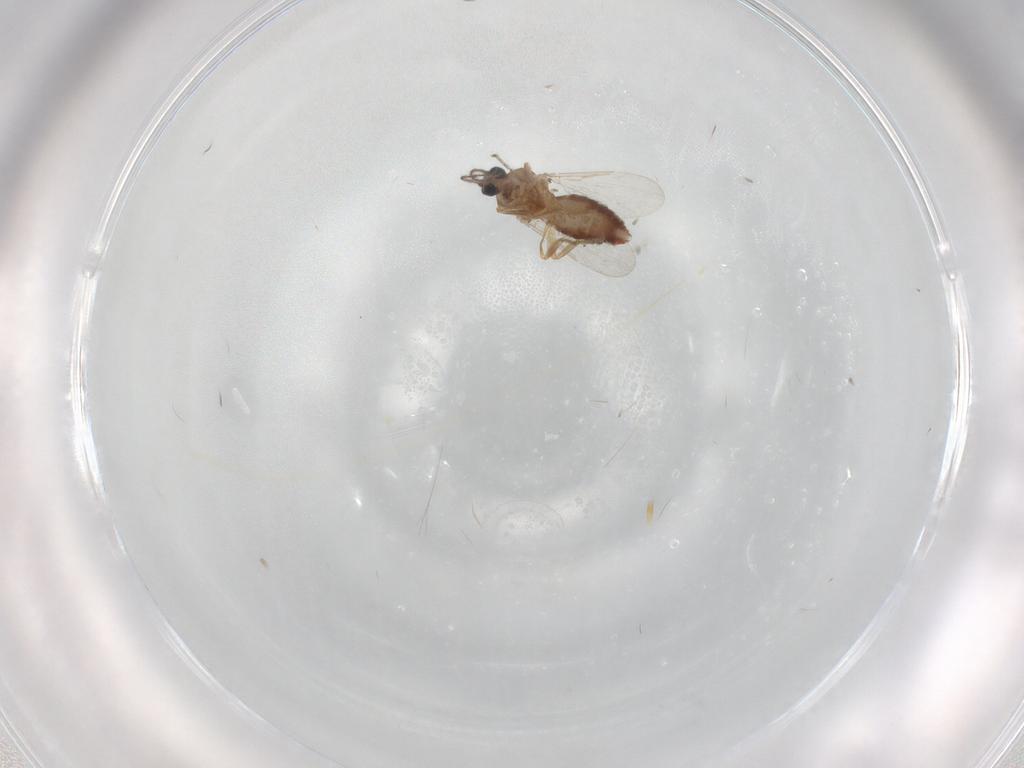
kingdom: Animalia
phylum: Arthropoda
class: Insecta
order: Diptera
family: Ceratopogonidae
